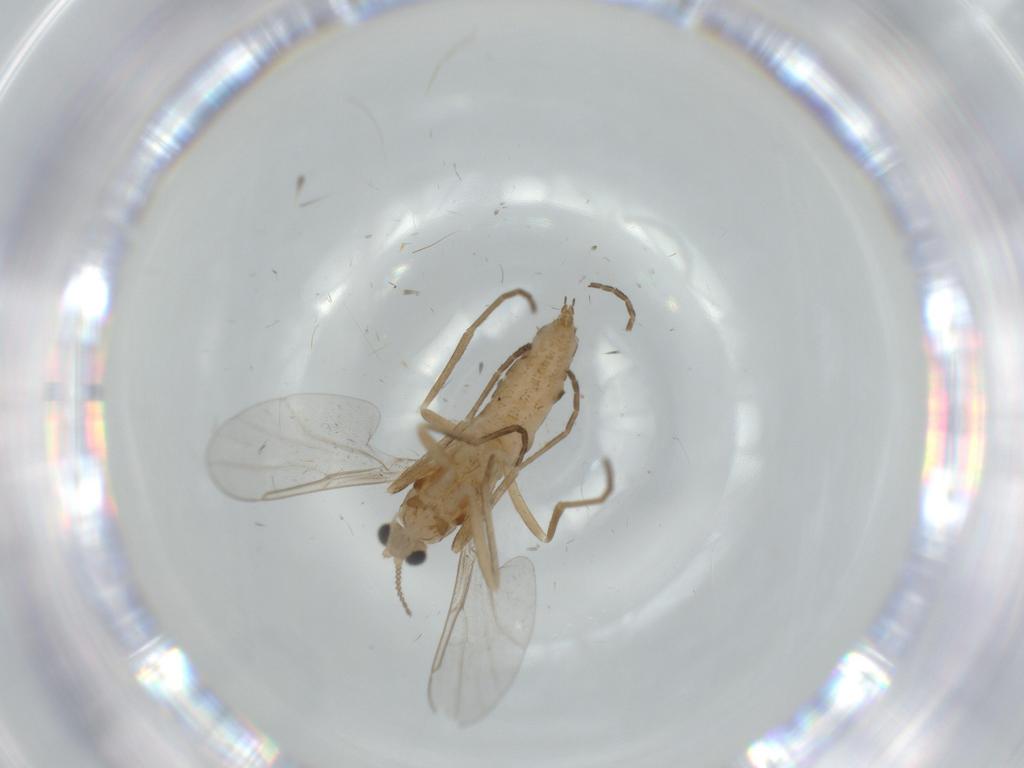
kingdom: Animalia
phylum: Arthropoda
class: Insecta
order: Diptera
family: Cecidomyiidae
